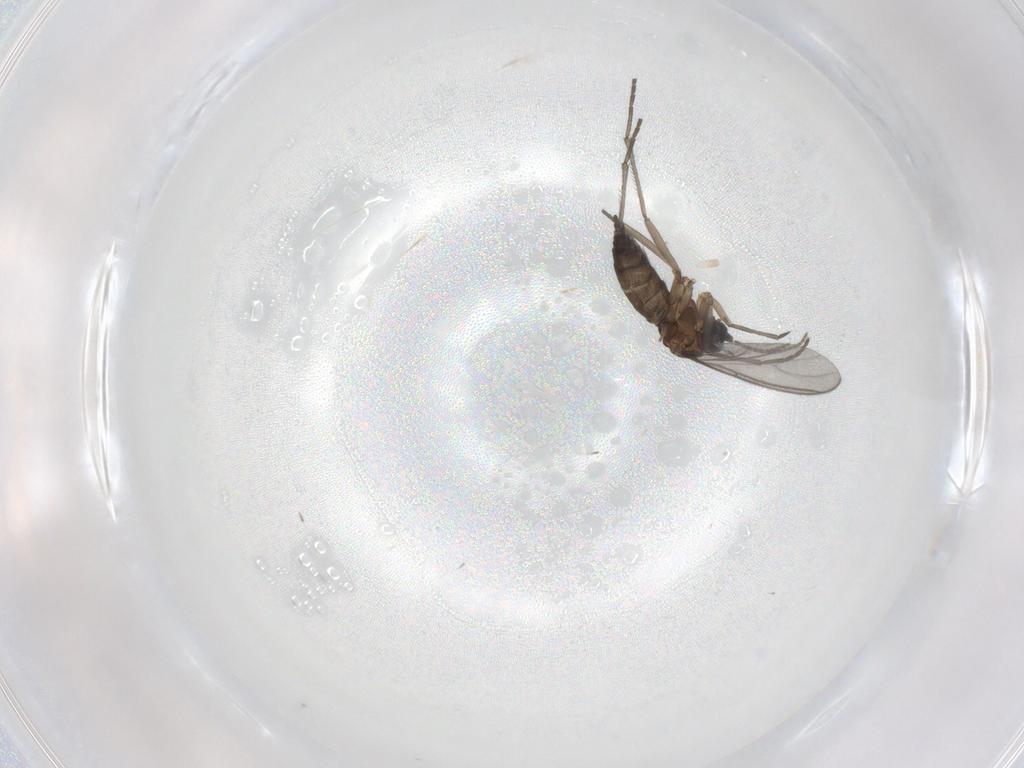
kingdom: Animalia
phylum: Arthropoda
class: Insecta
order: Diptera
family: Sciaridae
